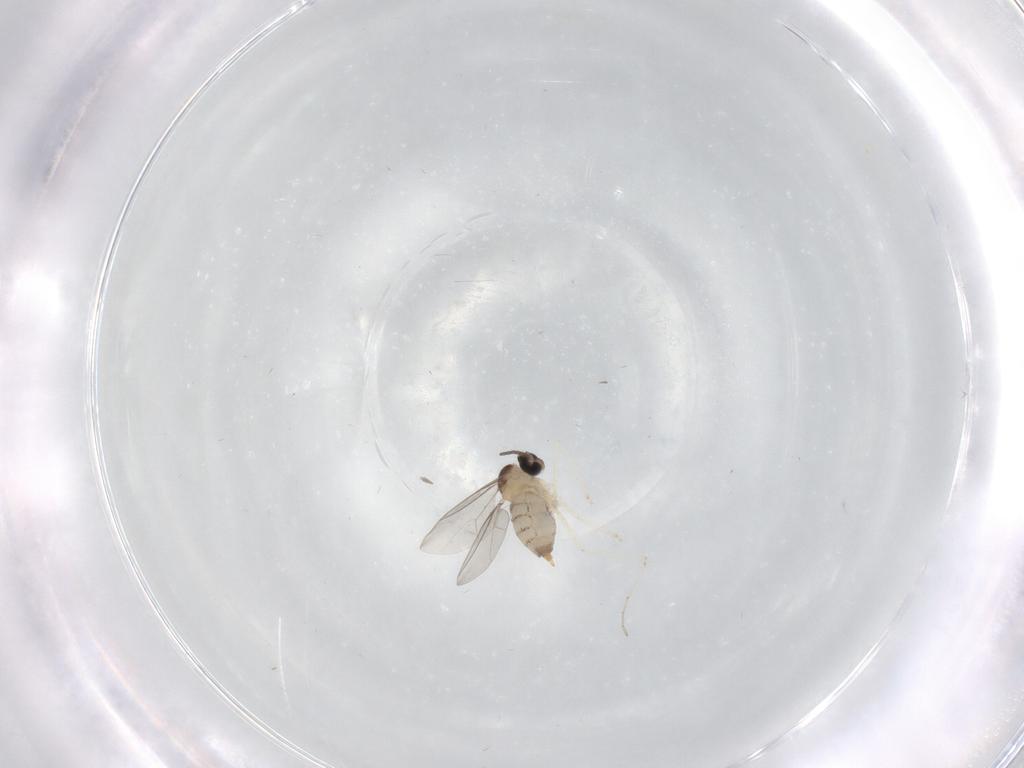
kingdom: Animalia
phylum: Arthropoda
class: Insecta
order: Diptera
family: Cecidomyiidae
